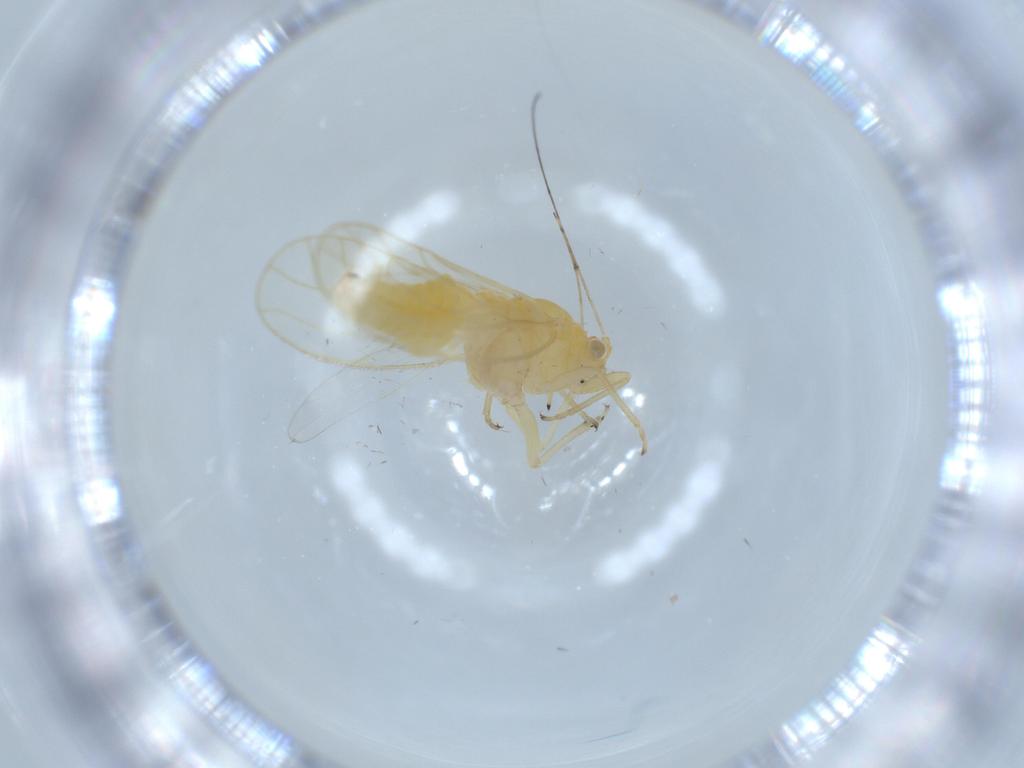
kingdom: Animalia
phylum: Arthropoda
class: Insecta
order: Hemiptera
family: Psyllidae
